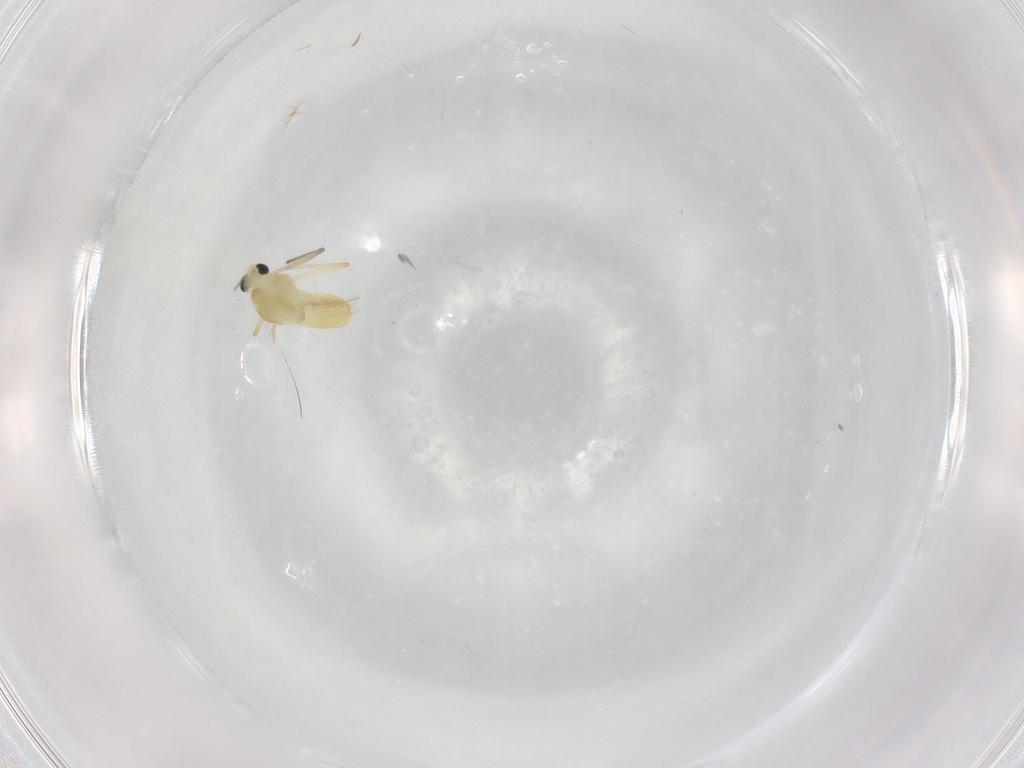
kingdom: Animalia
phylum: Arthropoda
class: Insecta
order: Diptera
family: Chironomidae
